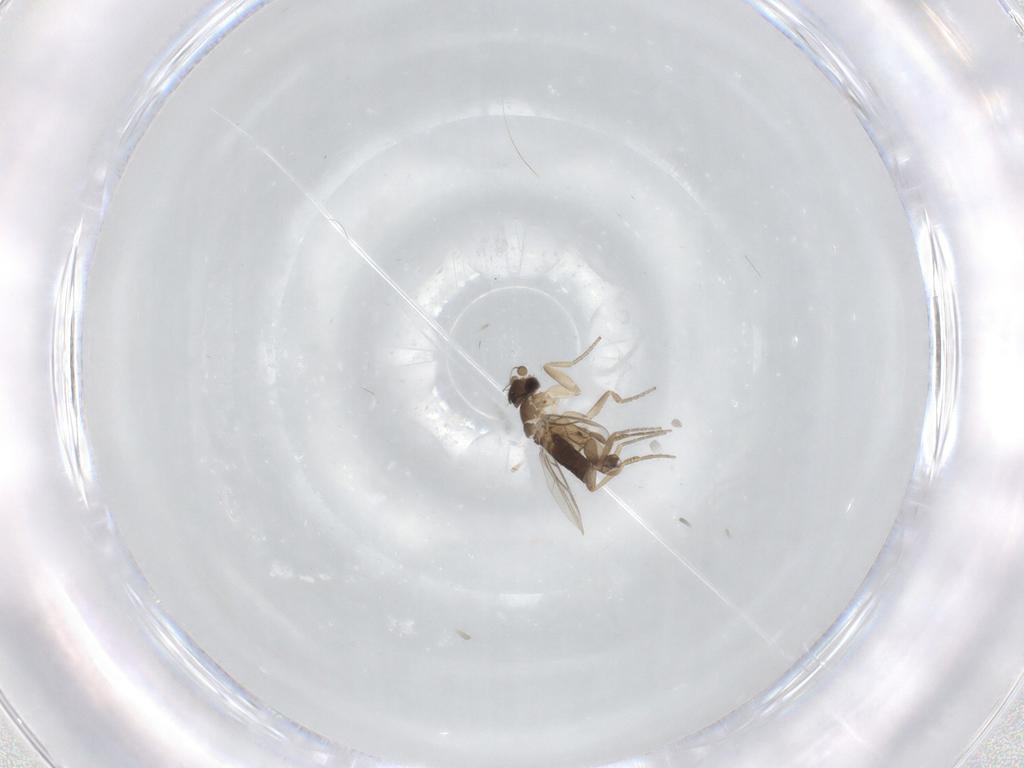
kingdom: Animalia
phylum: Arthropoda
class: Insecta
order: Diptera
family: Phoridae
